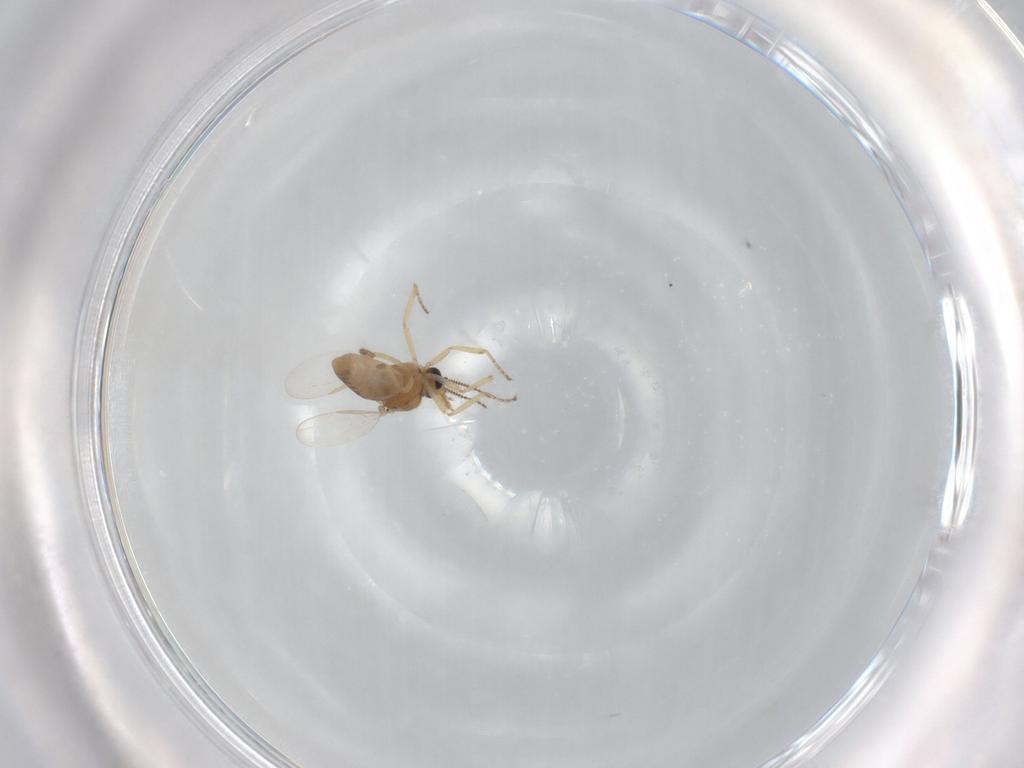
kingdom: Animalia
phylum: Arthropoda
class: Insecta
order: Diptera
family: Ceratopogonidae
